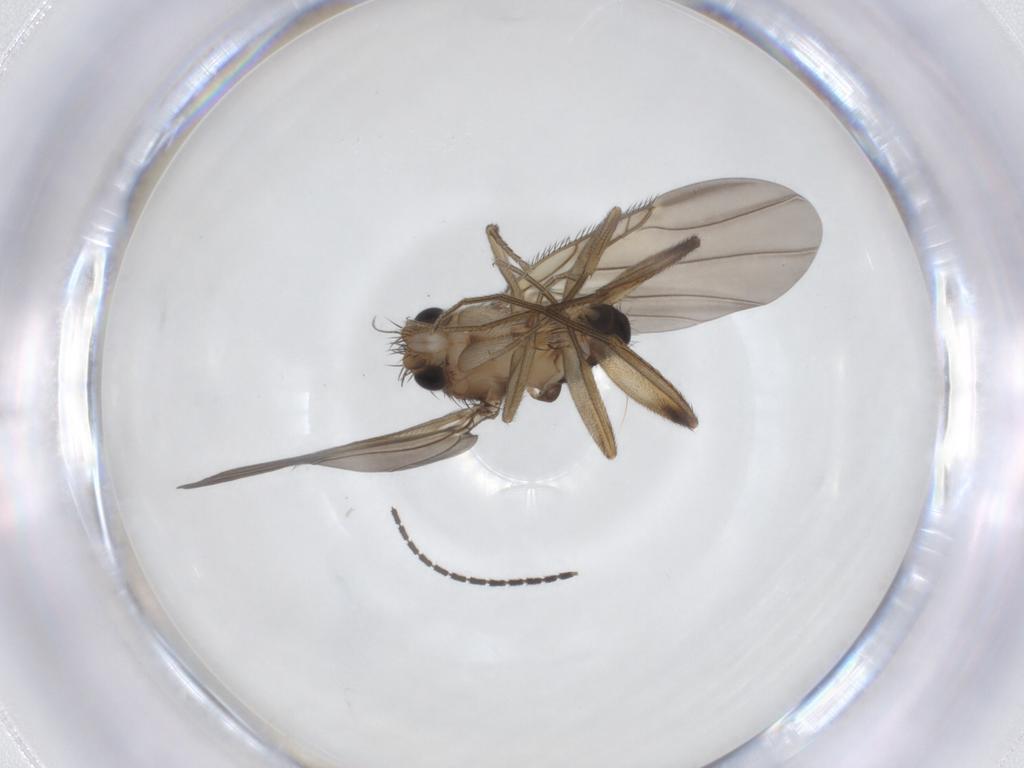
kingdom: Animalia
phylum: Arthropoda
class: Insecta
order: Diptera
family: Phoridae
